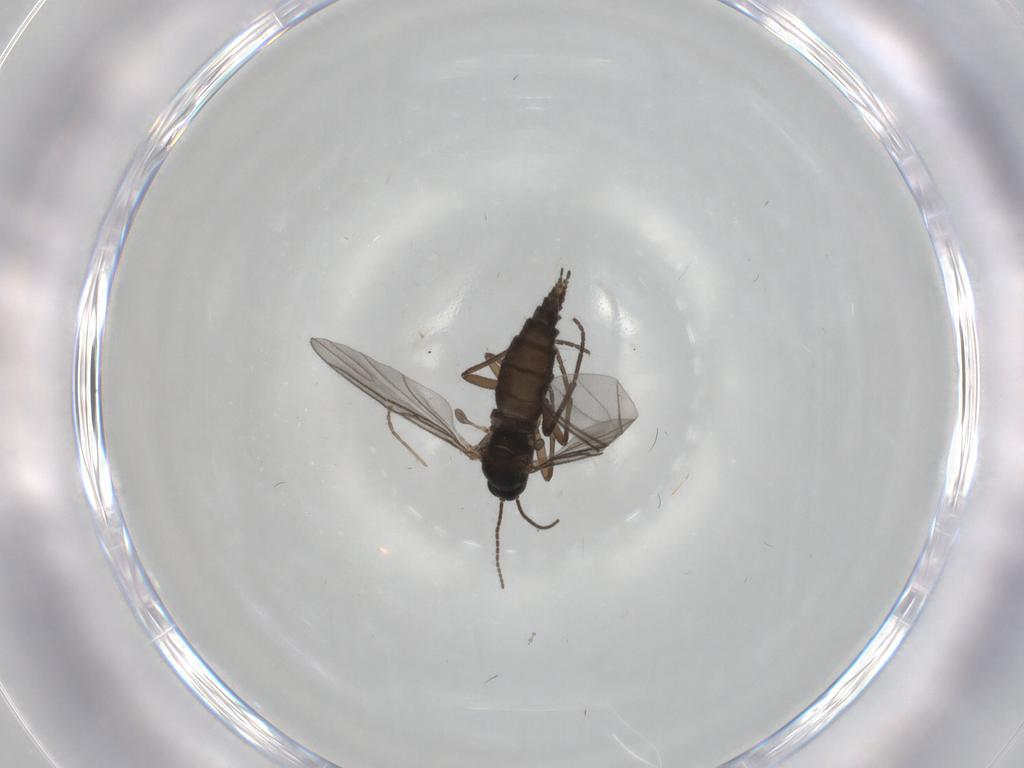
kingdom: Animalia
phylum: Arthropoda
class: Insecta
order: Diptera
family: Sciaridae
